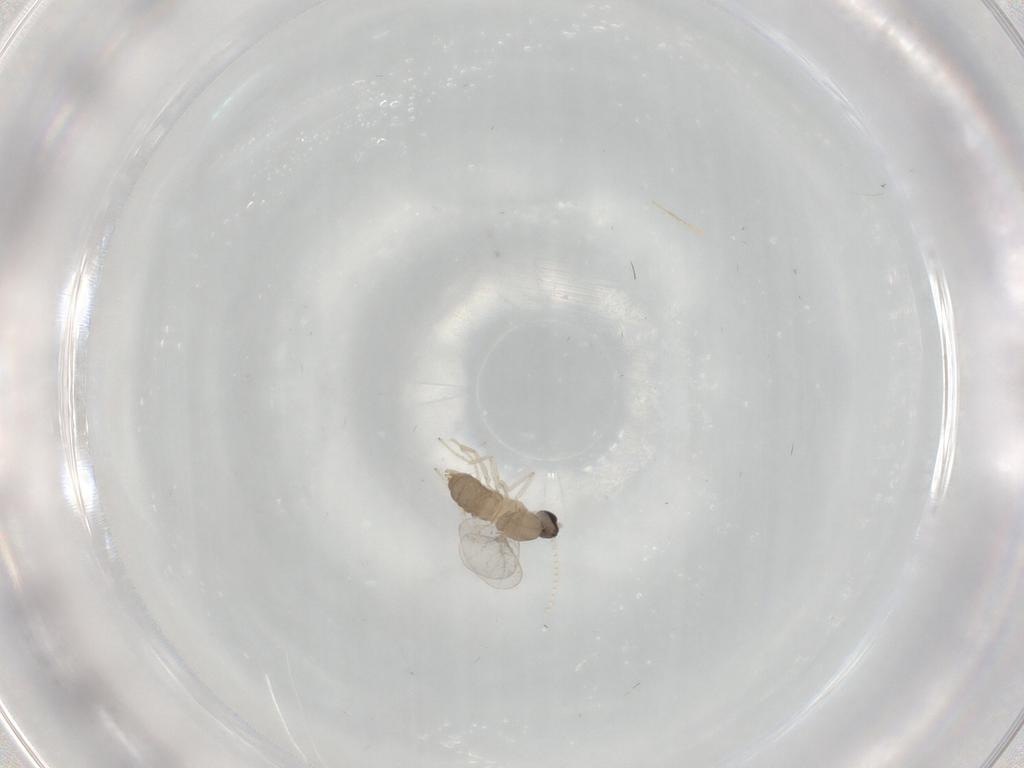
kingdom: Animalia
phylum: Arthropoda
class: Insecta
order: Diptera
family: Cecidomyiidae
